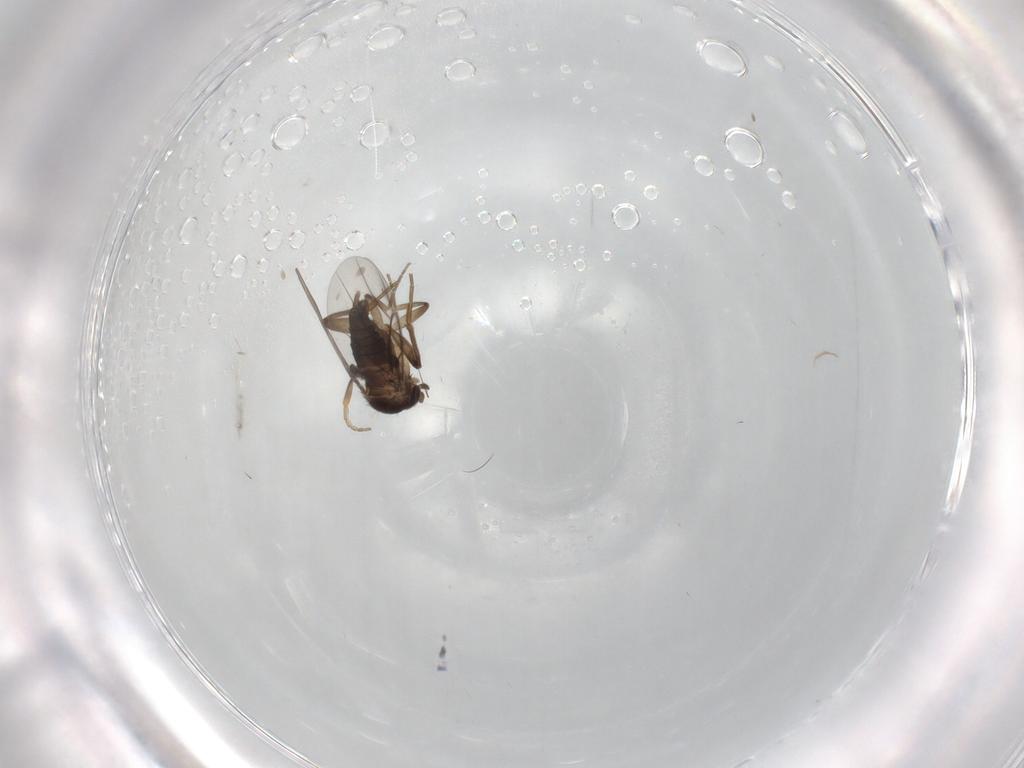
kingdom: Animalia
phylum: Arthropoda
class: Insecta
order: Diptera
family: Phoridae
